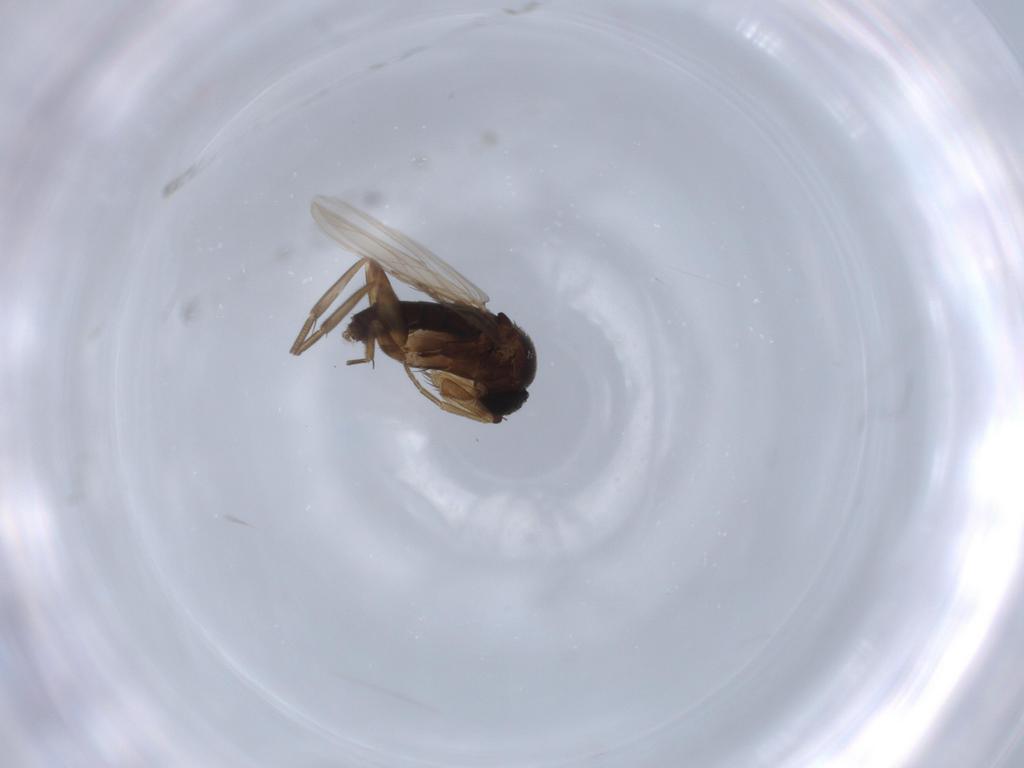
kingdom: Animalia
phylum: Arthropoda
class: Insecta
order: Diptera
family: Phoridae
